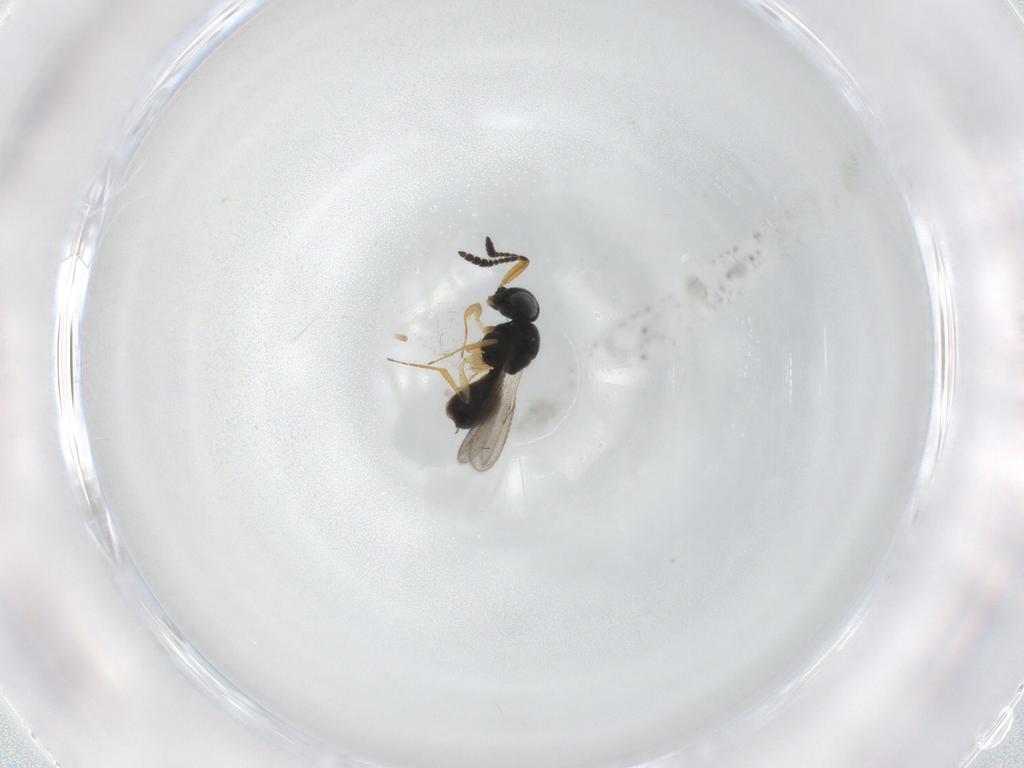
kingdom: Animalia
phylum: Arthropoda
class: Insecta
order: Hymenoptera
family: Scelionidae
